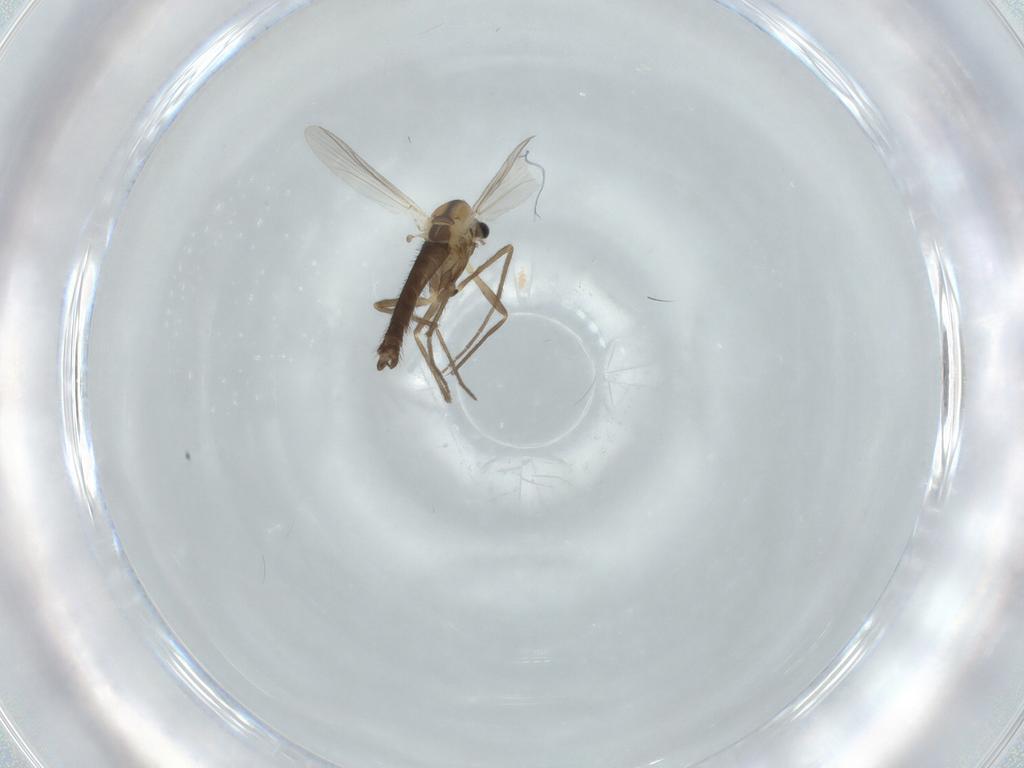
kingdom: Animalia
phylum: Arthropoda
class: Insecta
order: Diptera
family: Chironomidae
